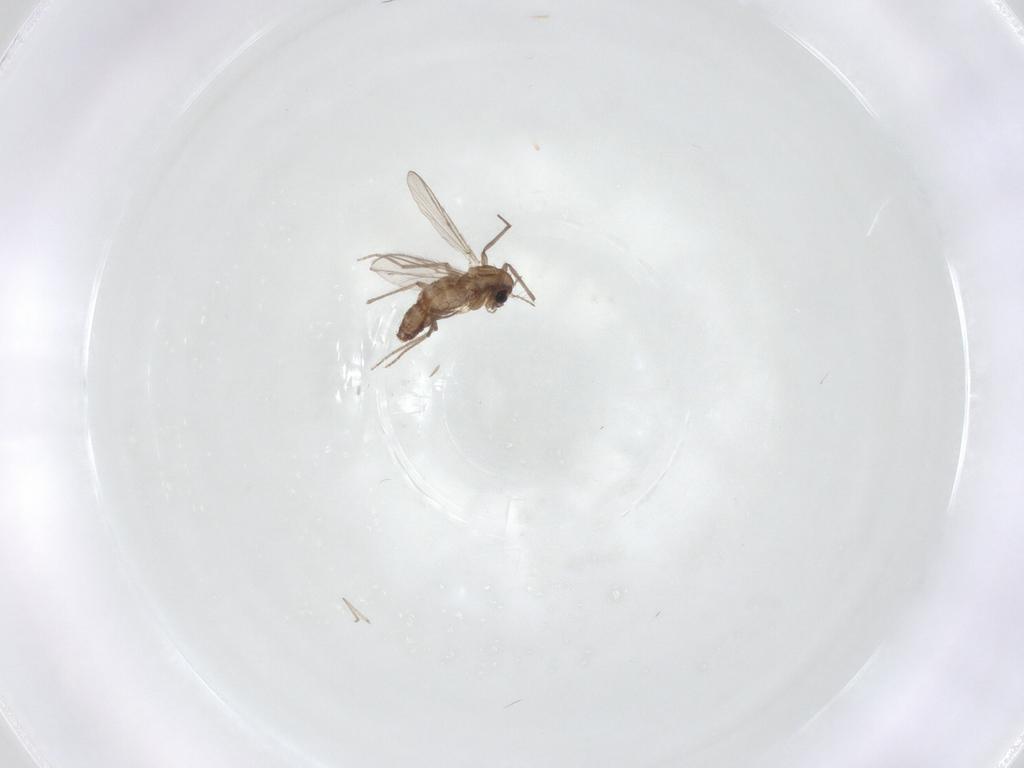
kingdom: Animalia
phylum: Arthropoda
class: Insecta
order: Diptera
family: Chironomidae
